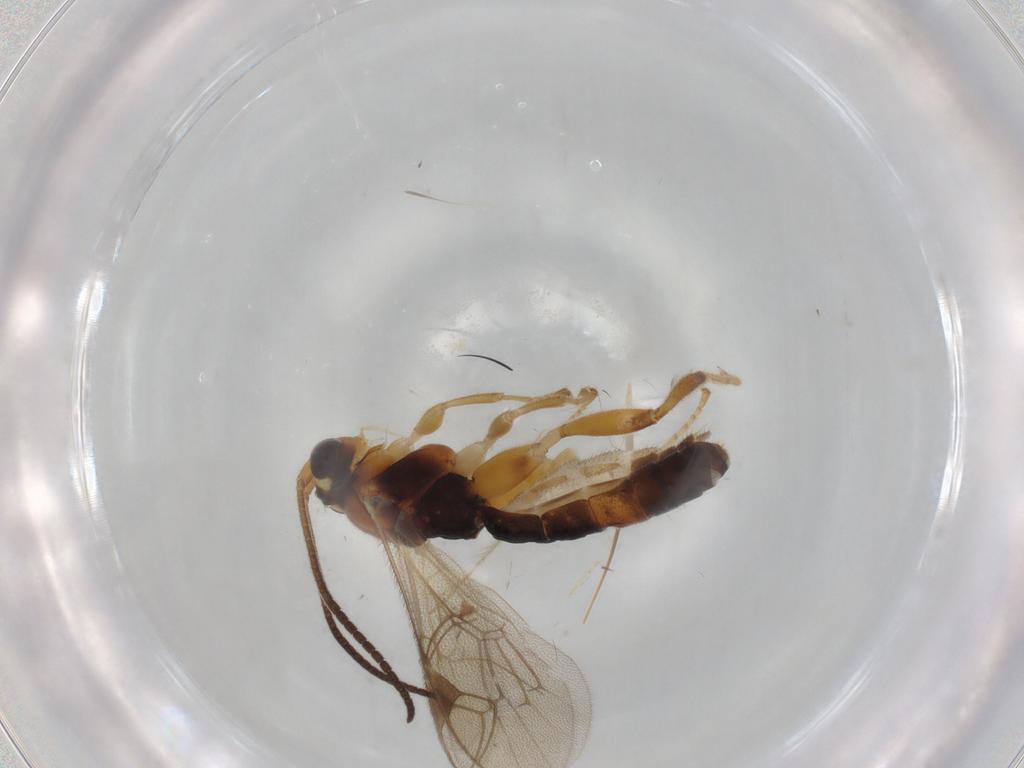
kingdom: Animalia
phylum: Arthropoda
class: Insecta
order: Hymenoptera
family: Ichneumonidae
